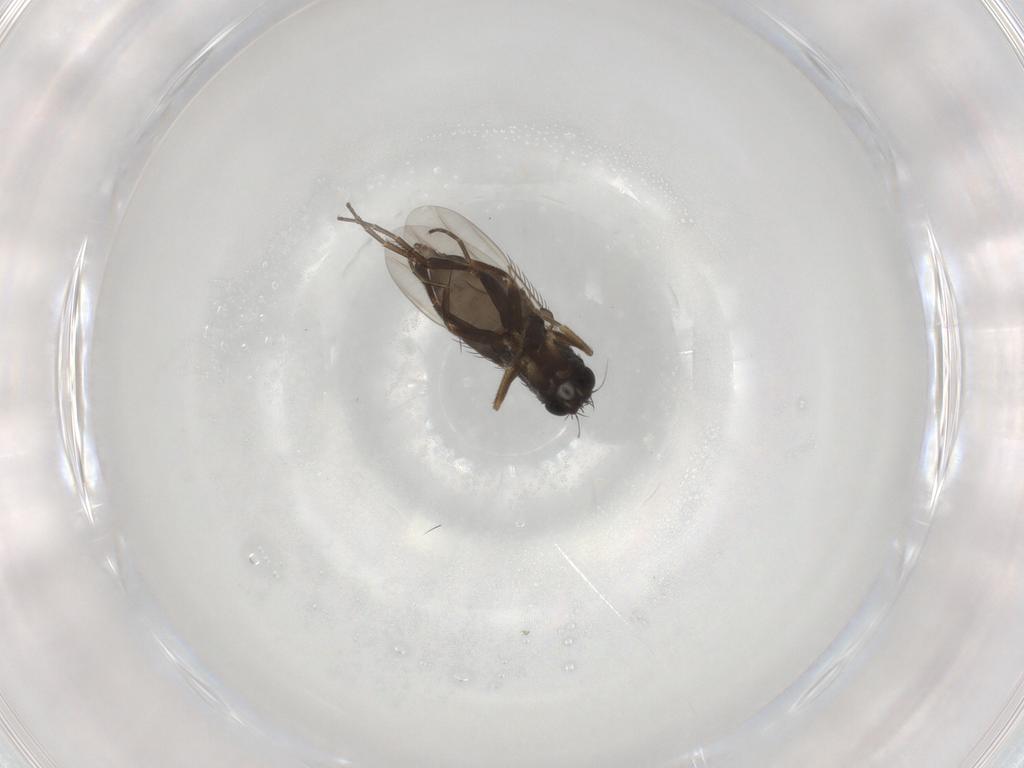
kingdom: Animalia
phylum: Arthropoda
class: Insecta
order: Diptera
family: Phoridae
